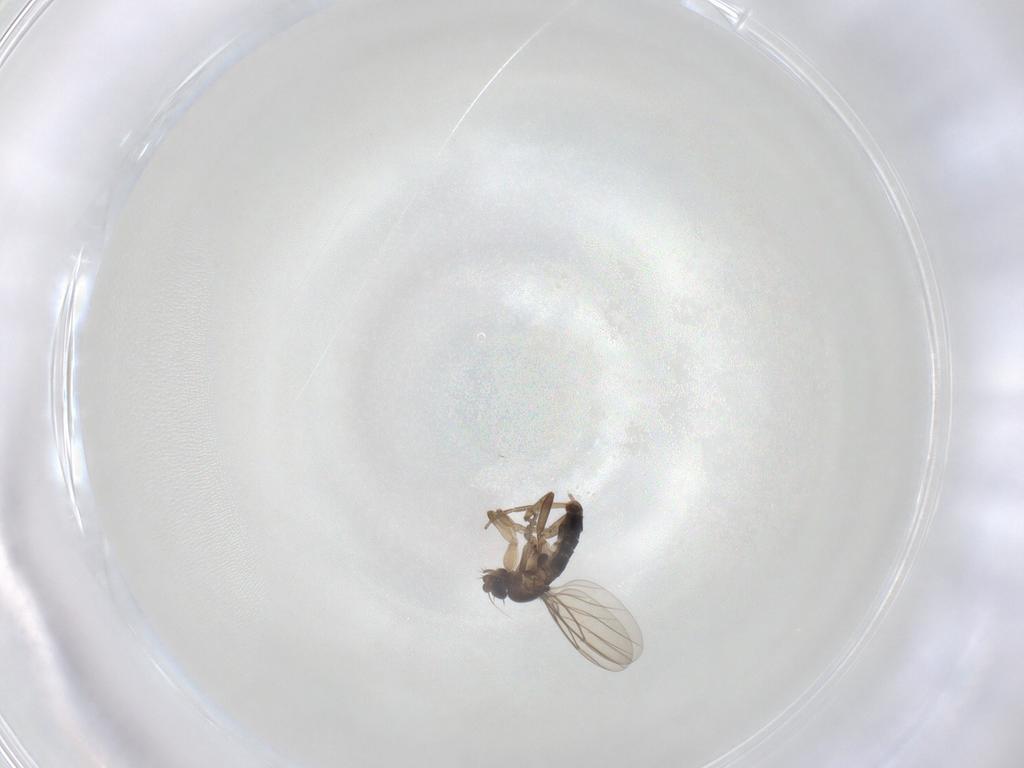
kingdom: Animalia
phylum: Arthropoda
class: Insecta
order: Diptera
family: Phoridae
